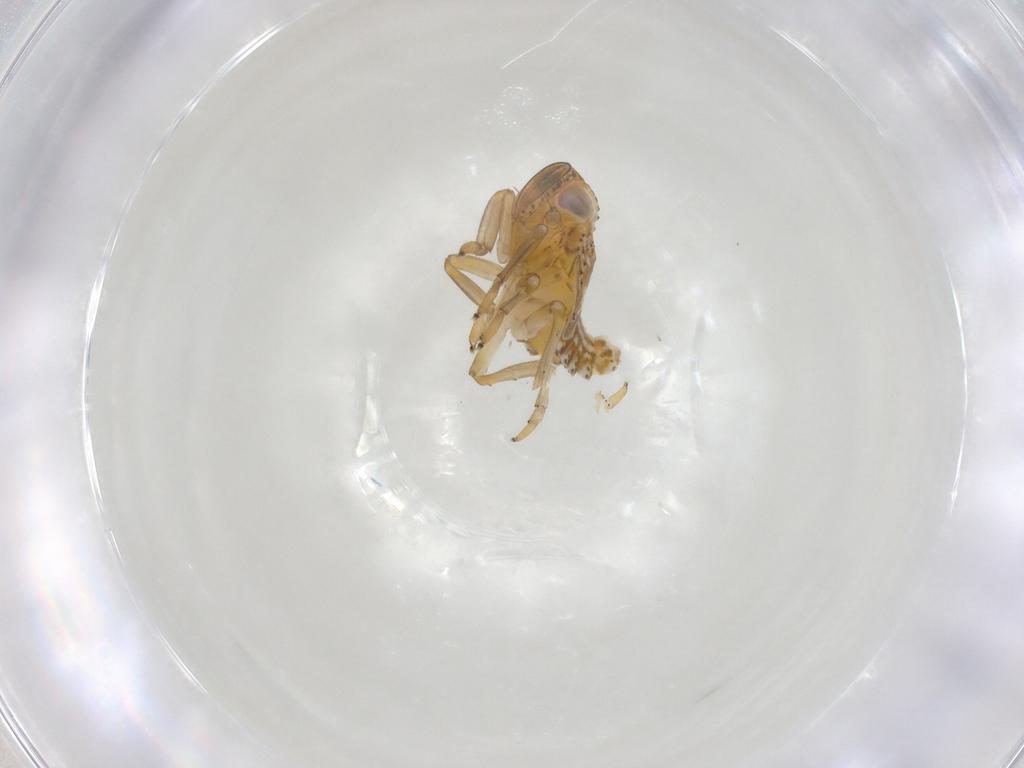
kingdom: Animalia
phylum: Arthropoda
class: Insecta
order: Hemiptera
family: Issidae
